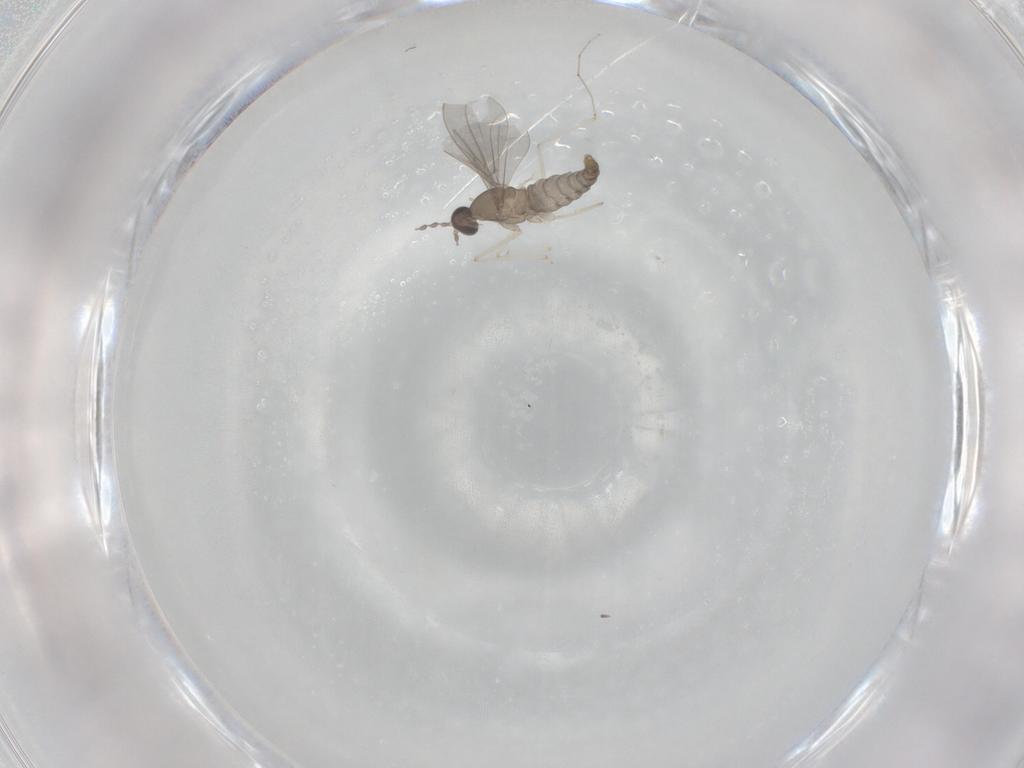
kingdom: Animalia
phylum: Arthropoda
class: Insecta
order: Diptera
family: Cecidomyiidae
